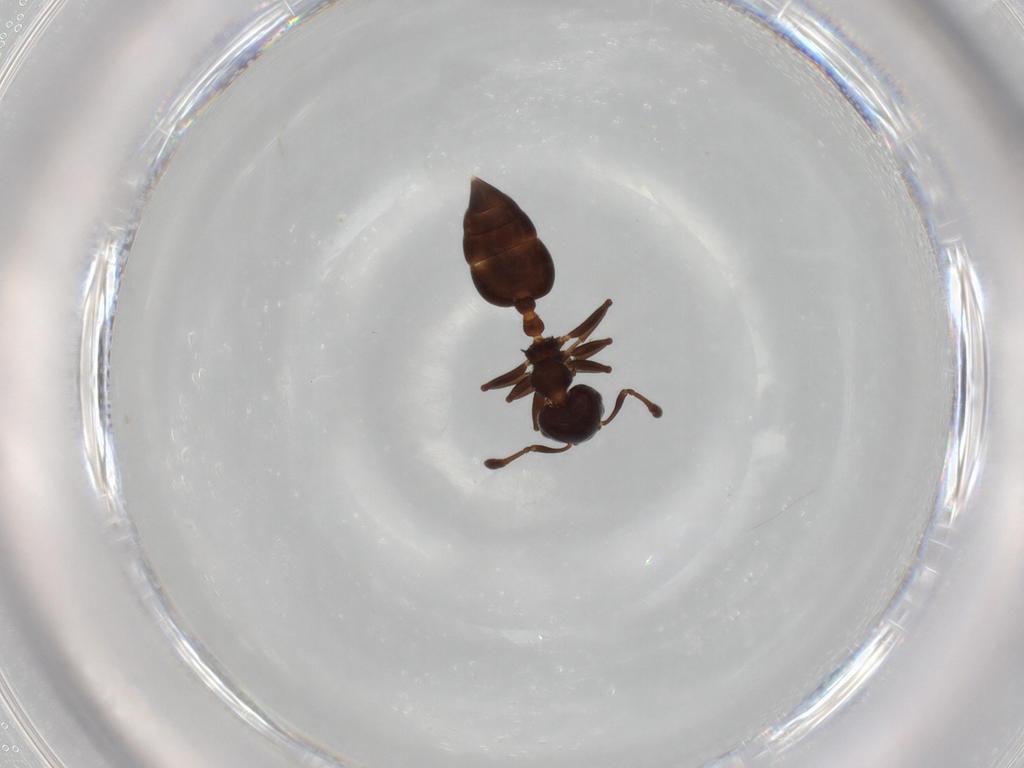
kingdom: Animalia
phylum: Arthropoda
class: Insecta
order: Hymenoptera
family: Formicidae
